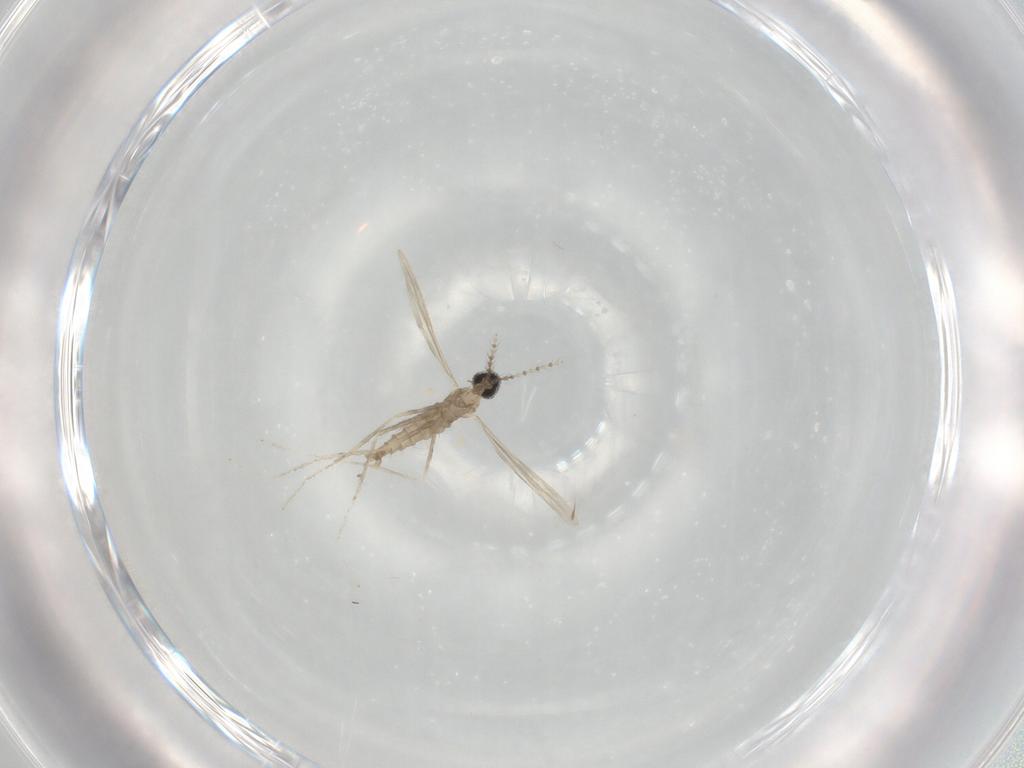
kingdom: Animalia
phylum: Arthropoda
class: Insecta
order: Diptera
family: Cecidomyiidae
